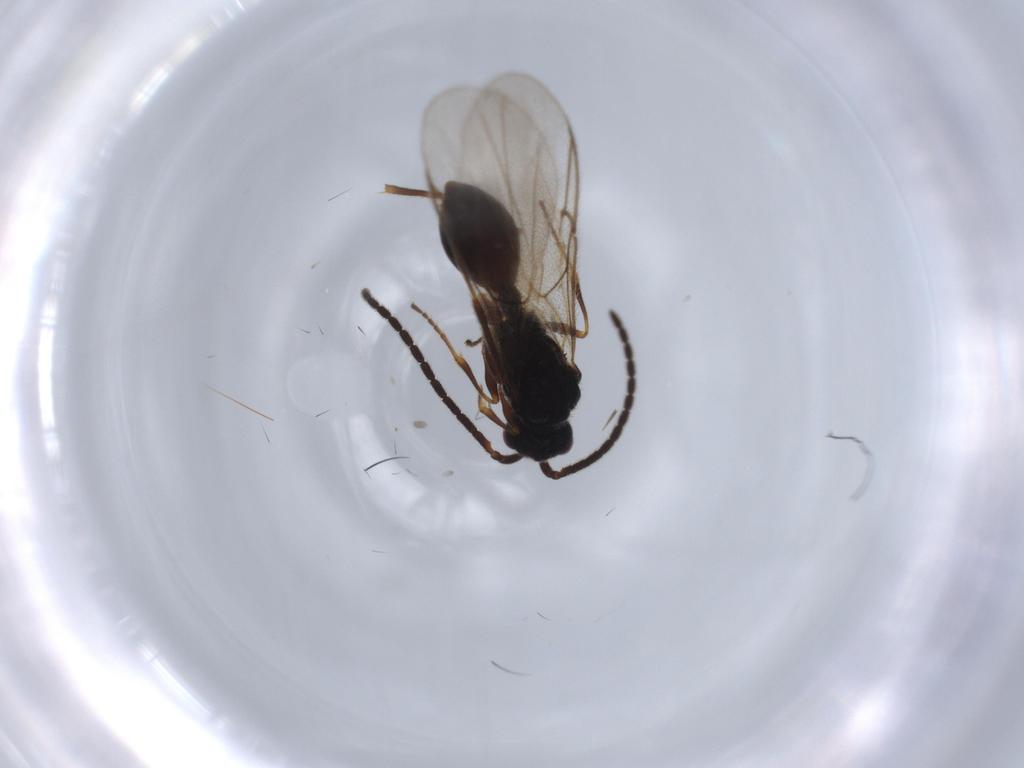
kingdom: Animalia
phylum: Arthropoda
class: Insecta
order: Hymenoptera
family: Diapriidae
